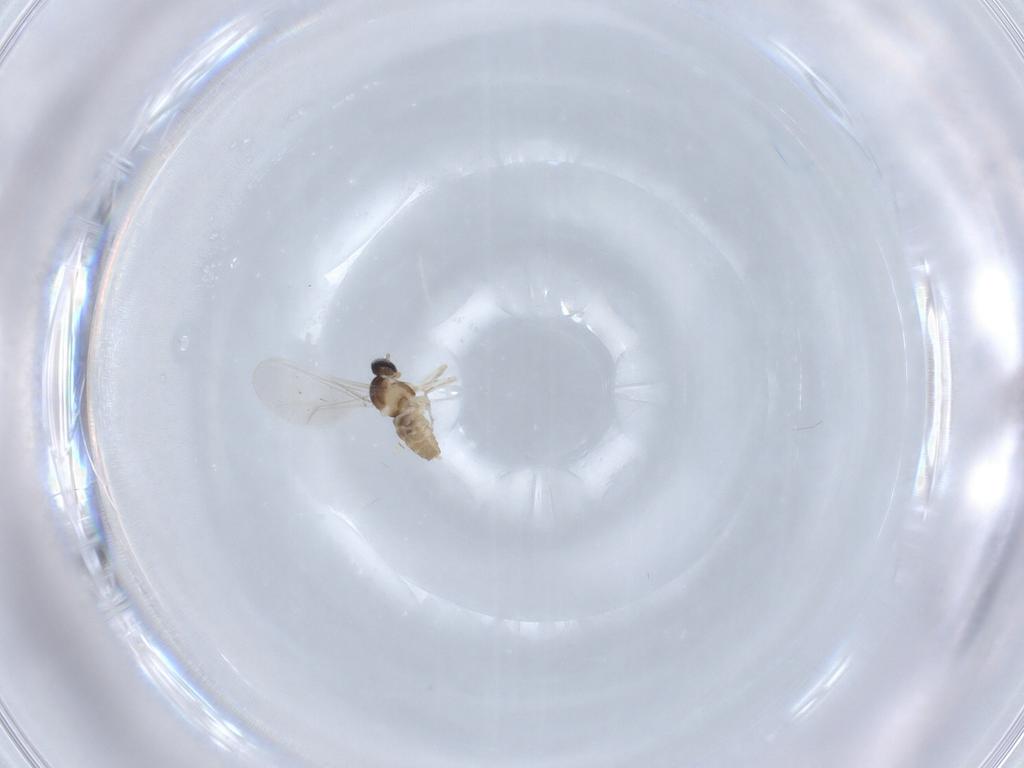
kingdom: Animalia
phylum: Arthropoda
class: Insecta
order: Diptera
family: Cecidomyiidae
